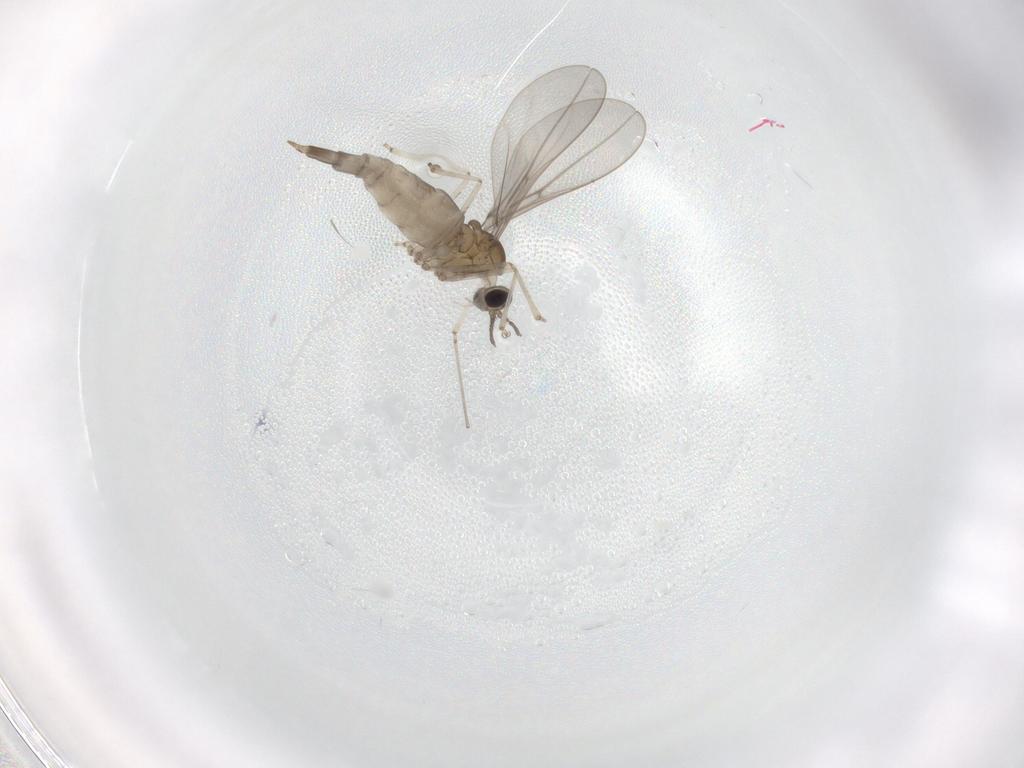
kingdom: Animalia
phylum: Arthropoda
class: Insecta
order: Diptera
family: Cecidomyiidae
